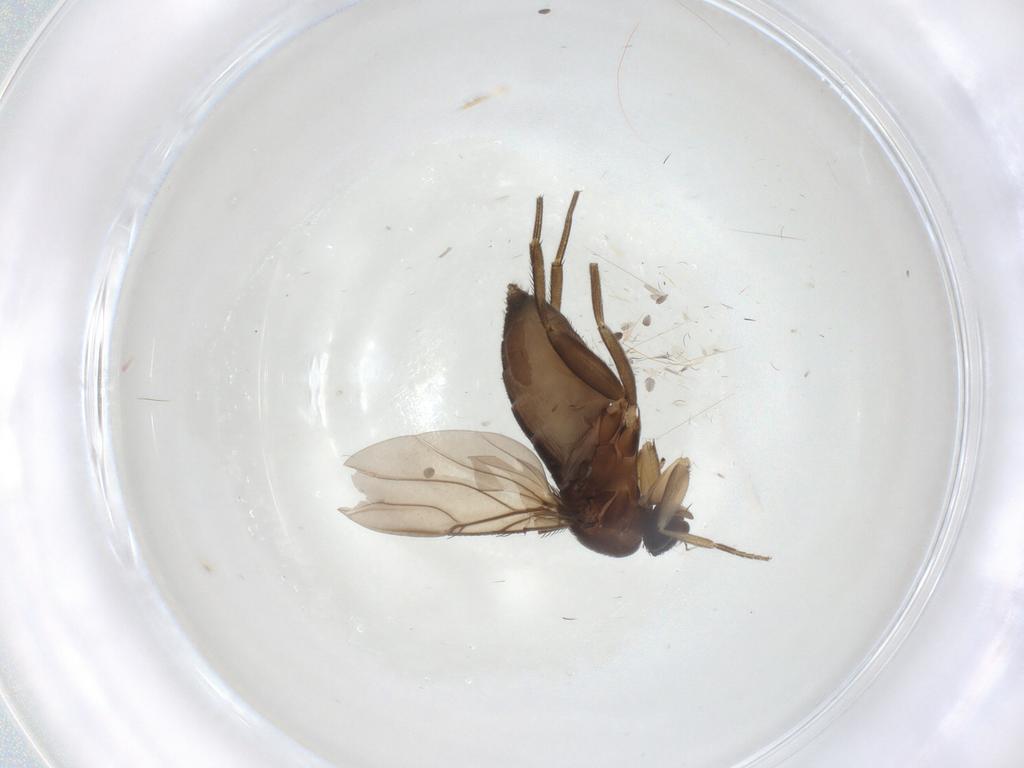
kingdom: Animalia
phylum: Arthropoda
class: Insecta
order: Diptera
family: Phoridae
